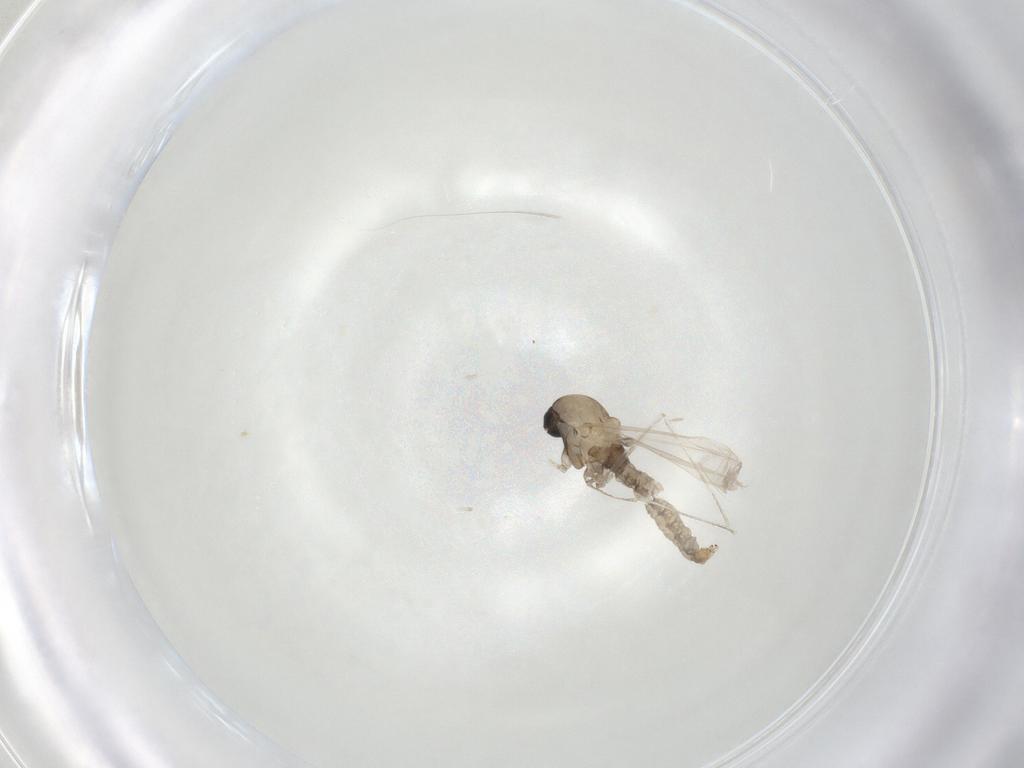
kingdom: Animalia
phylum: Arthropoda
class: Insecta
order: Diptera
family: Cecidomyiidae
